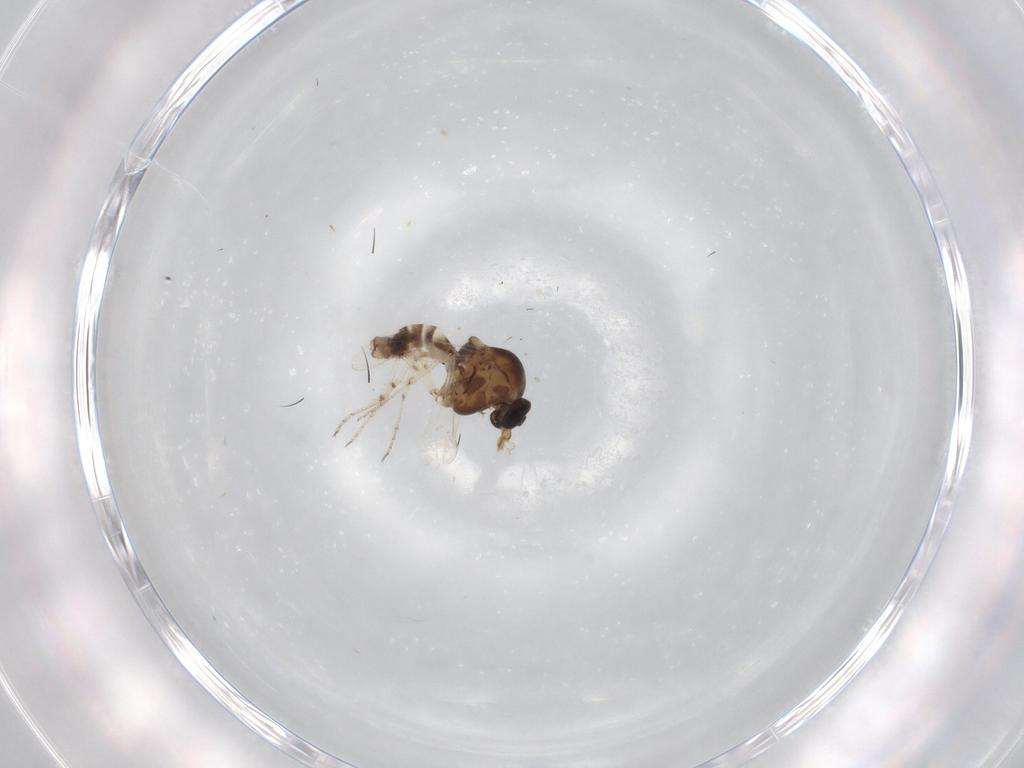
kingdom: Animalia
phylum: Arthropoda
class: Insecta
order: Diptera
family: Ceratopogonidae
